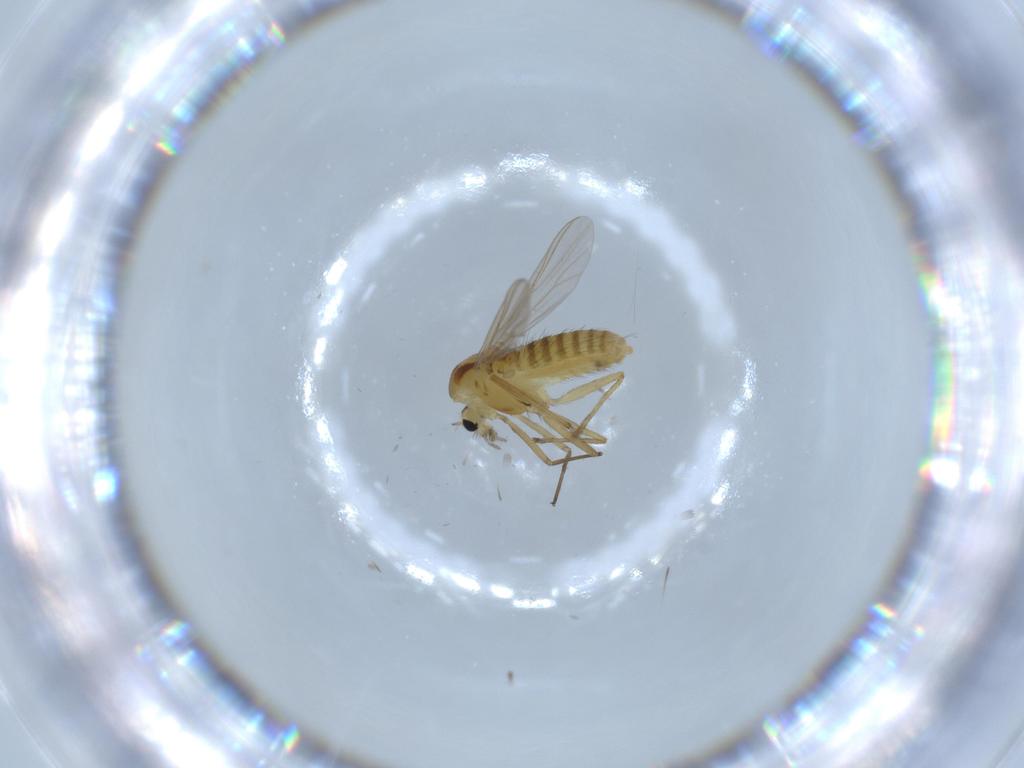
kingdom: Animalia
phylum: Arthropoda
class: Insecta
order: Diptera
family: Chironomidae
